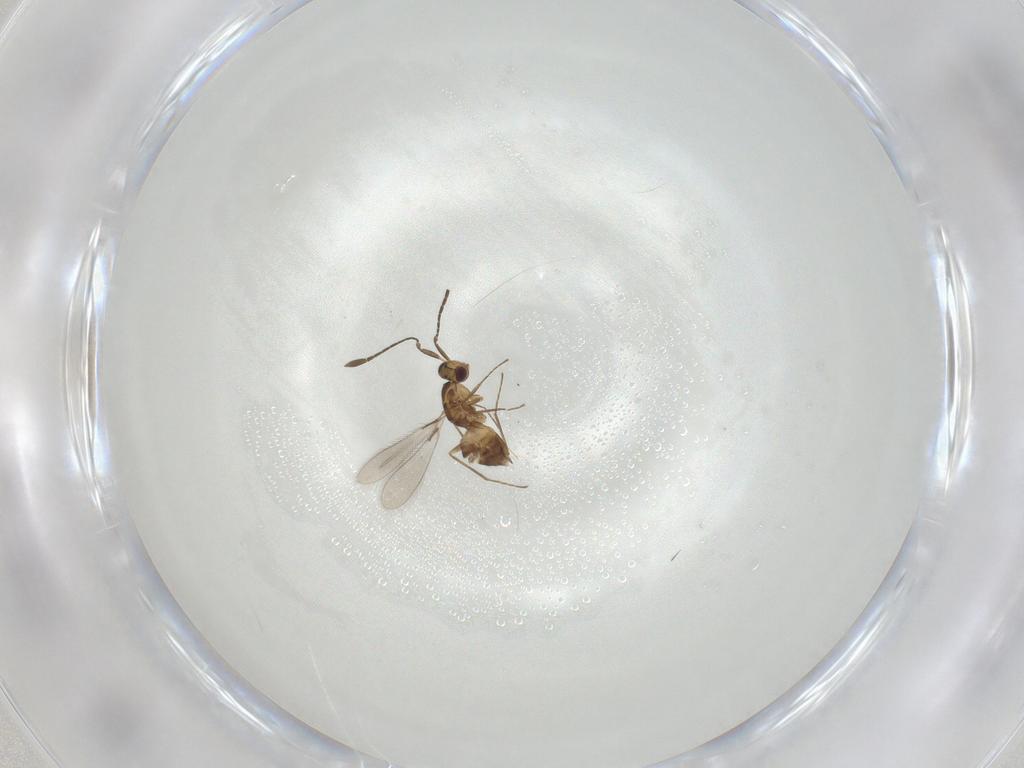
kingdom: Animalia
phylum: Arthropoda
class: Insecta
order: Hymenoptera
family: Mymaridae
